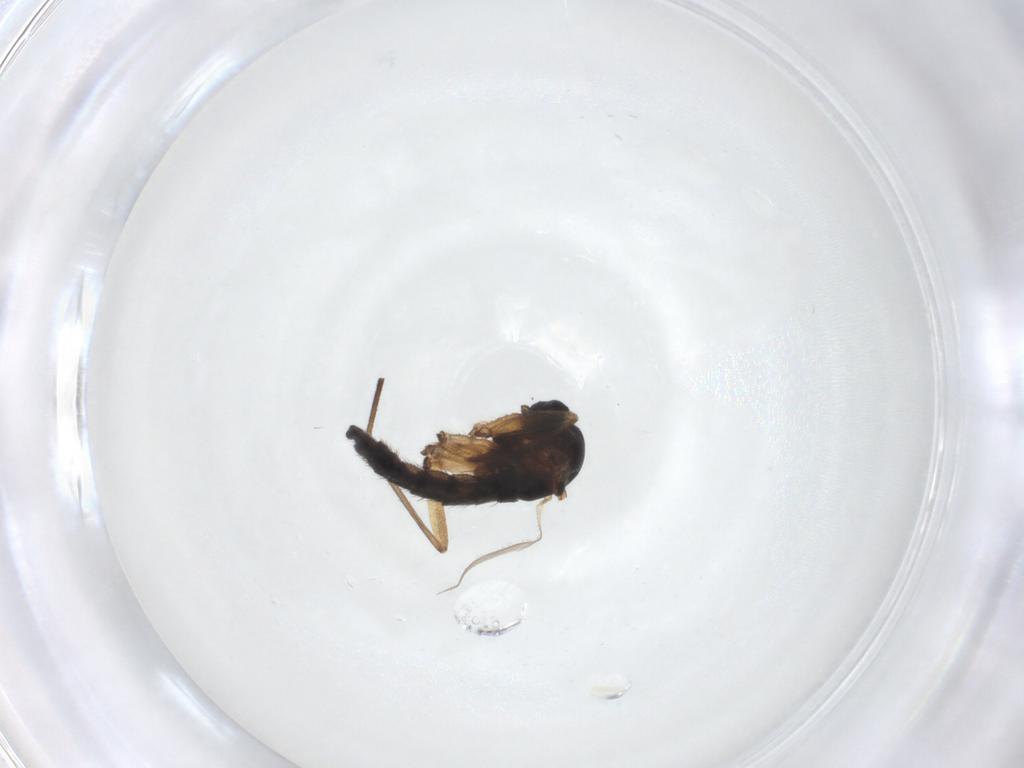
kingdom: Animalia
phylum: Arthropoda
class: Insecta
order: Diptera
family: Sciaridae
